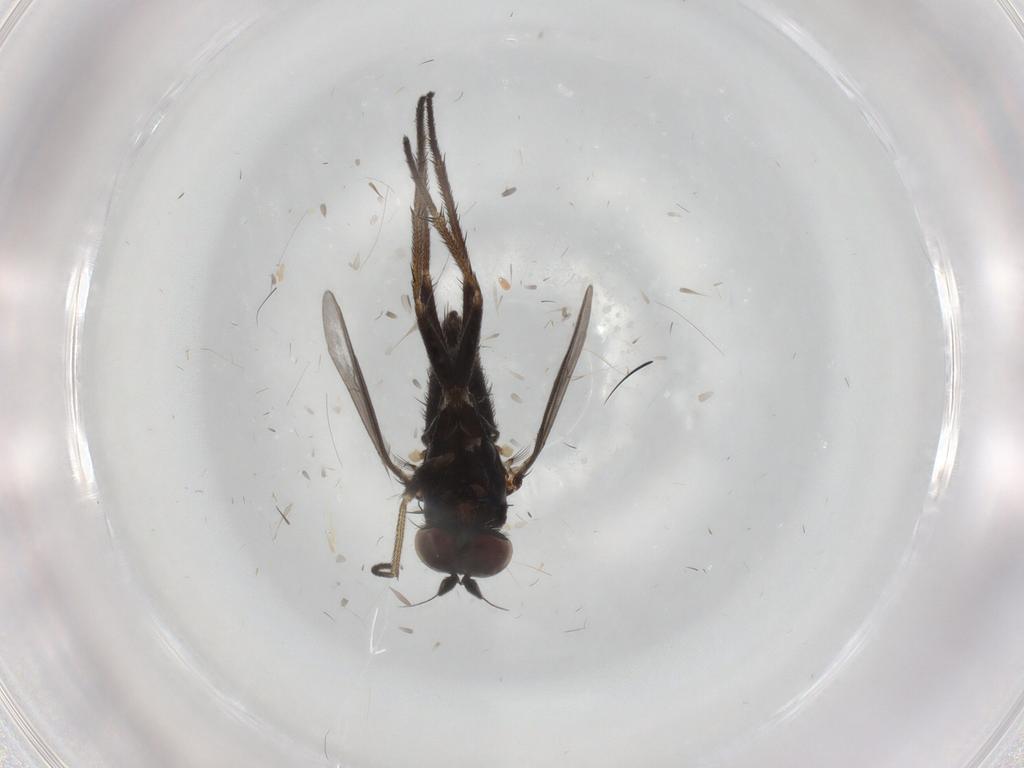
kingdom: Animalia
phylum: Arthropoda
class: Insecta
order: Diptera
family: Dolichopodidae
